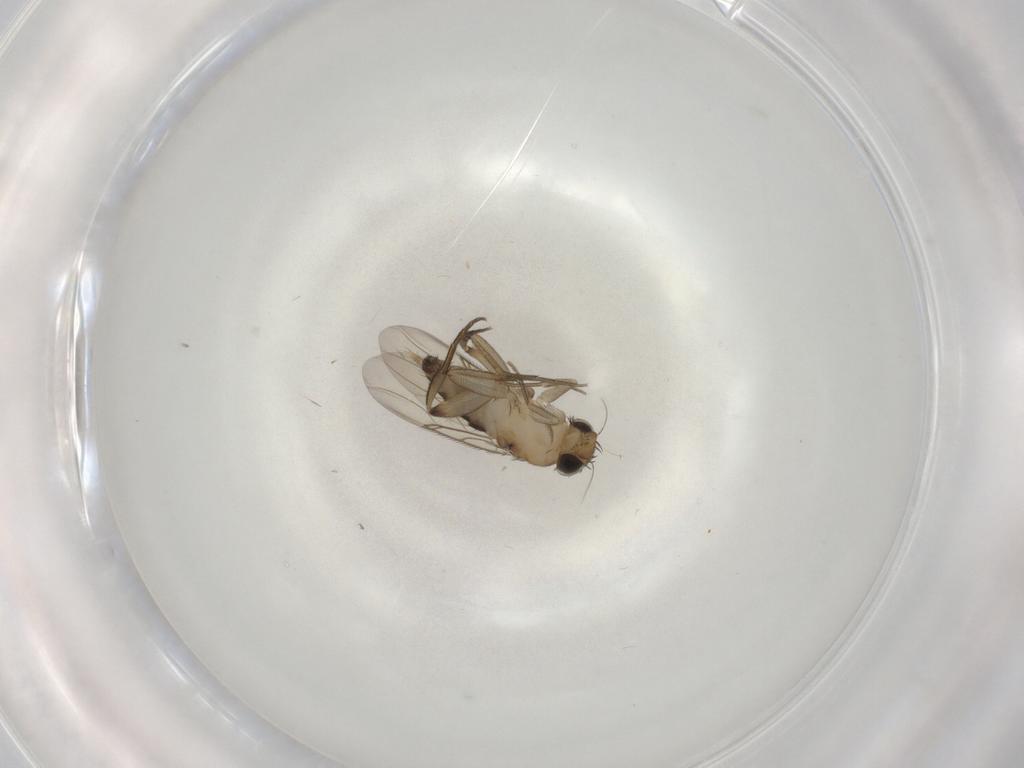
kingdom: Animalia
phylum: Arthropoda
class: Insecta
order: Diptera
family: Phoridae
